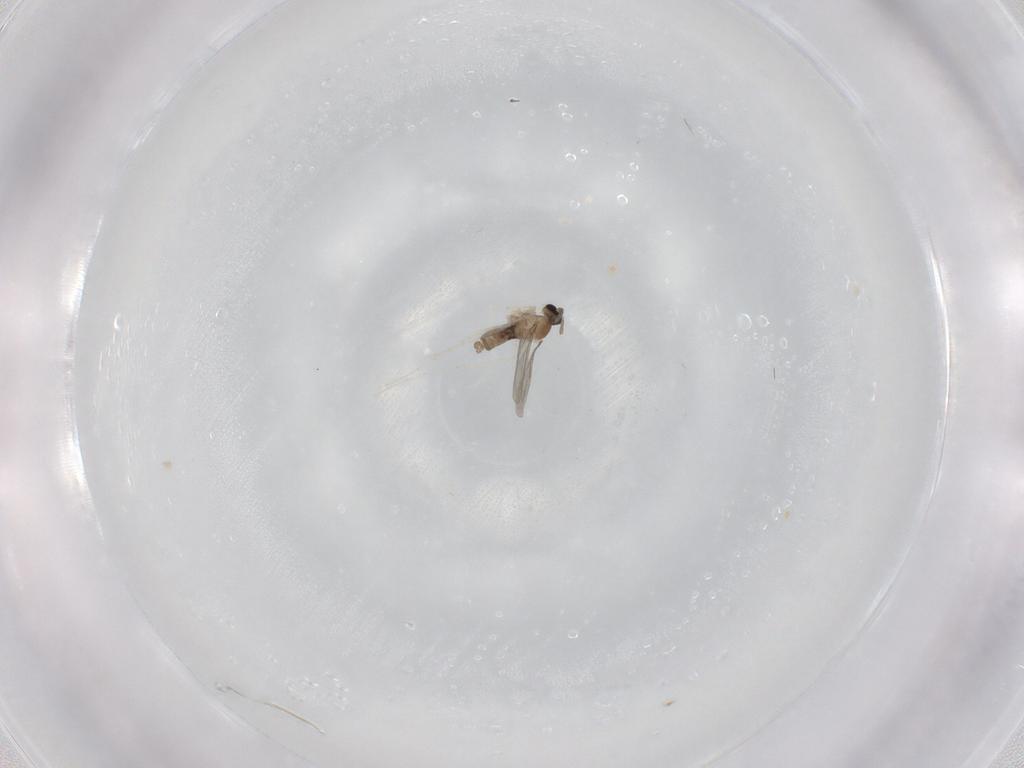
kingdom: Animalia
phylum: Arthropoda
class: Insecta
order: Diptera
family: Cecidomyiidae
